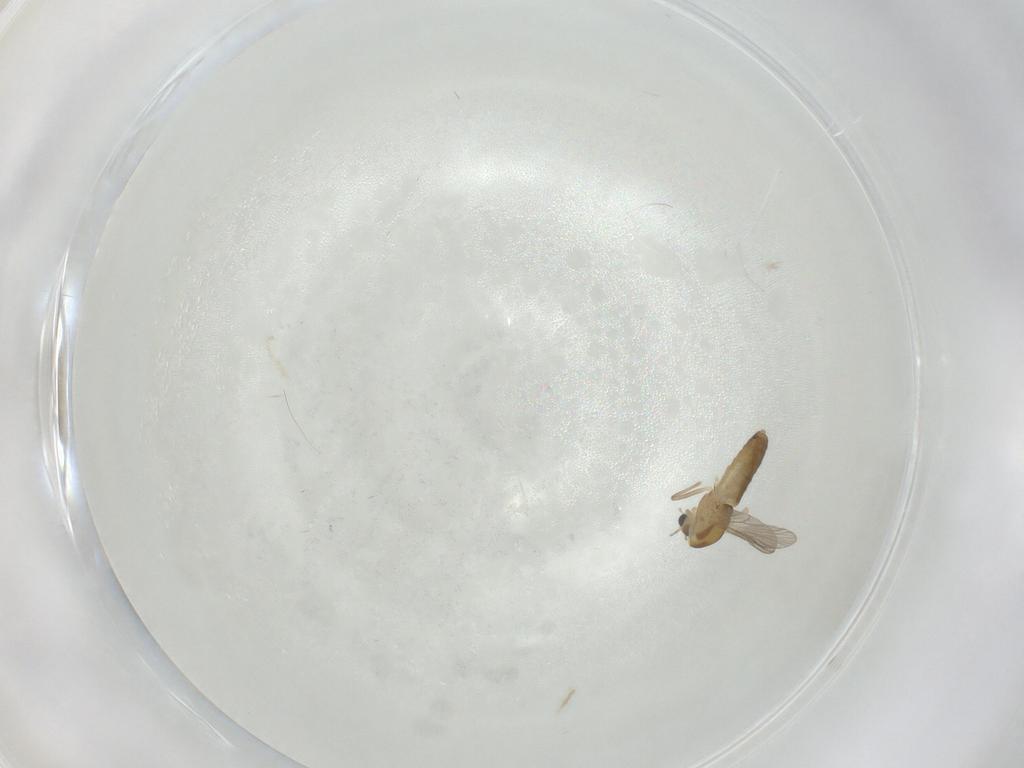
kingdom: Animalia
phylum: Arthropoda
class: Insecta
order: Diptera
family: Chironomidae
